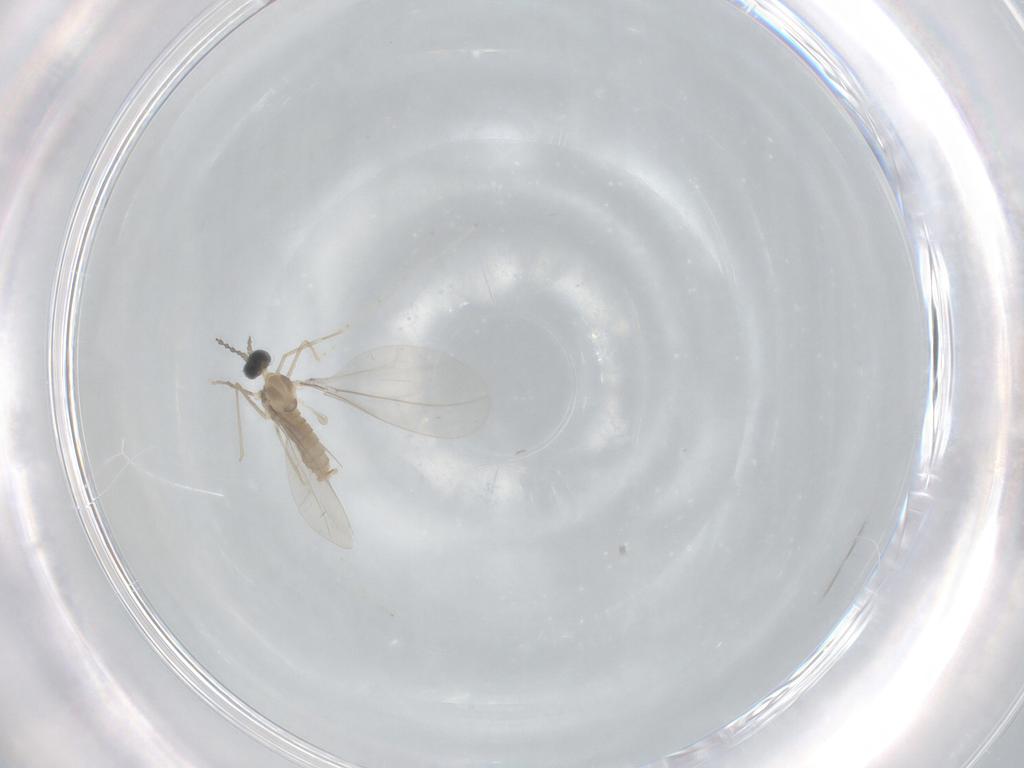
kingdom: Animalia
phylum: Arthropoda
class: Insecta
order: Diptera
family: Cecidomyiidae
